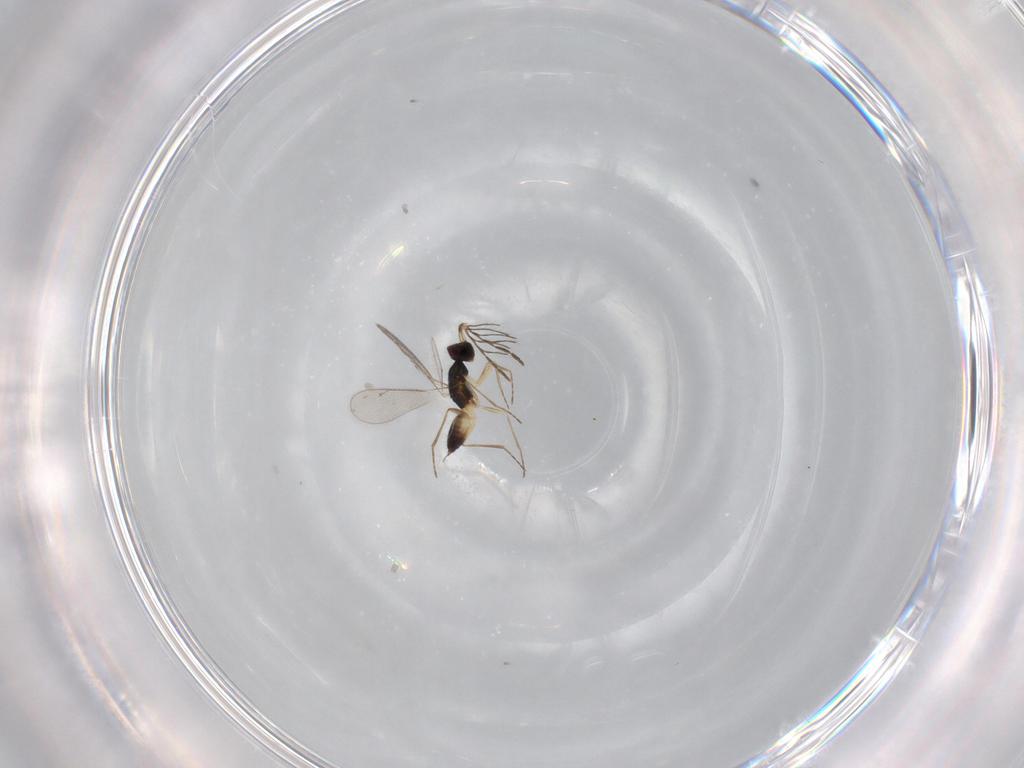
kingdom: Animalia
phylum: Arthropoda
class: Insecta
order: Hymenoptera
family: Eulophidae
